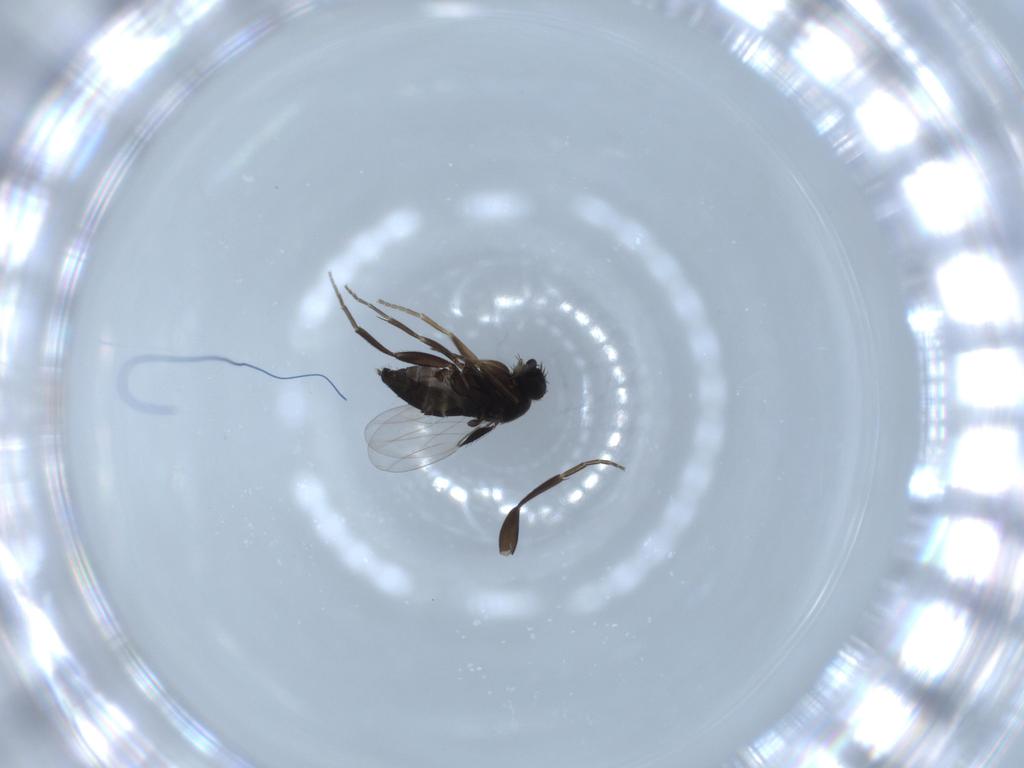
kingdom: Animalia
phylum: Arthropoda
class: Insecta
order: Diptera
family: Phoridae
